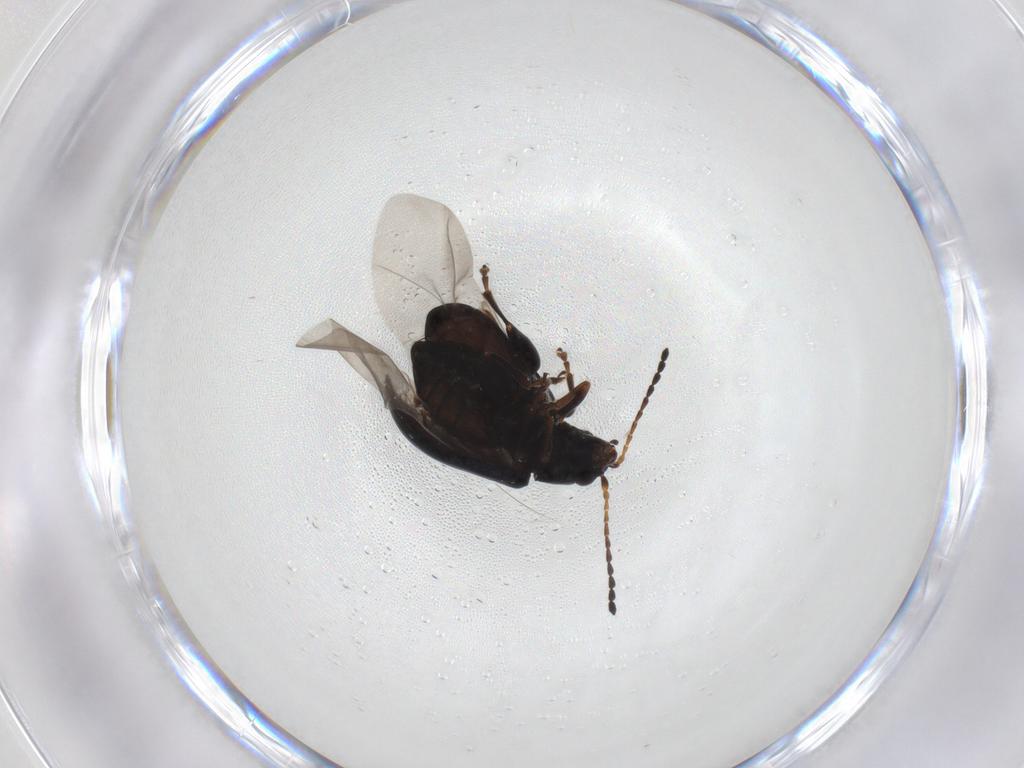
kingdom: Animalia
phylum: Arthropoda
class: Insecta
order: Coleoptera
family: Chrysomelidae
